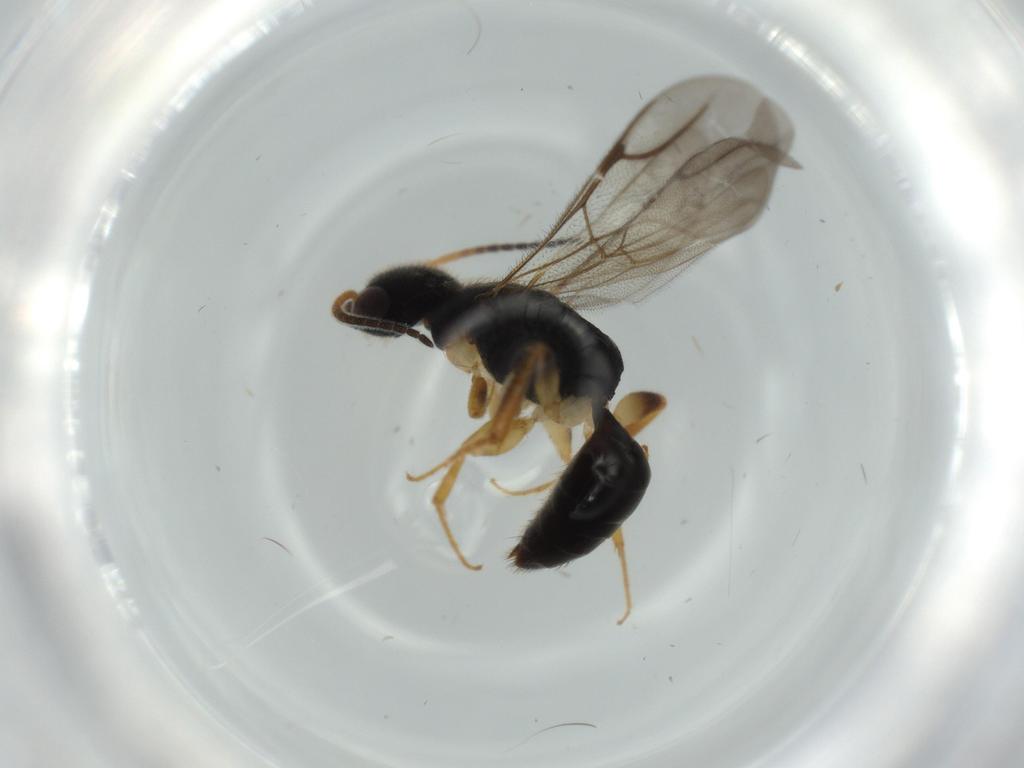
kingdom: Animalia
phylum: Arthropoda
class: Insecta
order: Hymenoptera
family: Bethylidae
